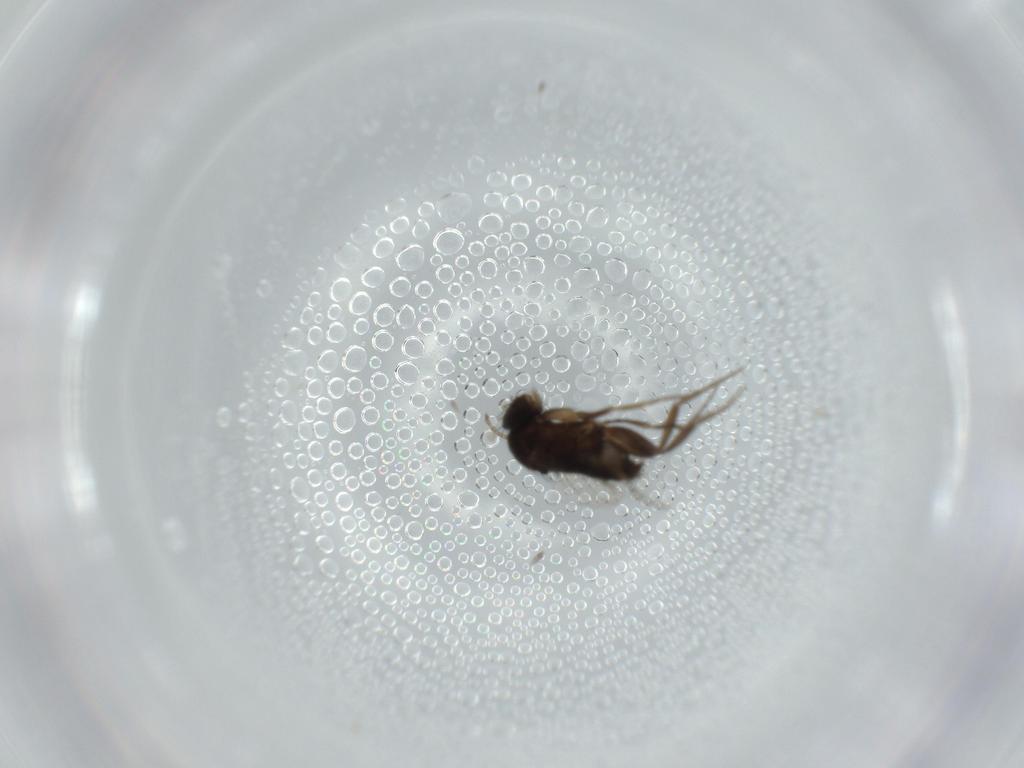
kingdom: Animalia
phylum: Arthropoda
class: Insecta
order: Diptera
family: Phoridae
